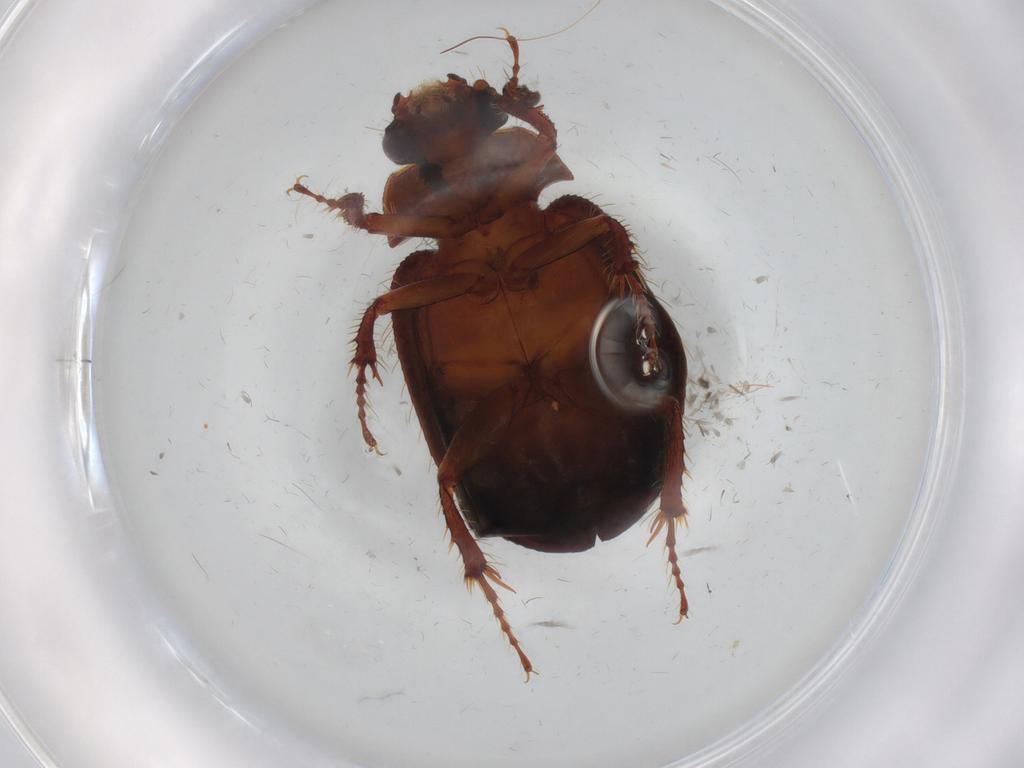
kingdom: Animalia
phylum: Arthropoda
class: Insecta
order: Coleoptera
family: Hybosoridae
